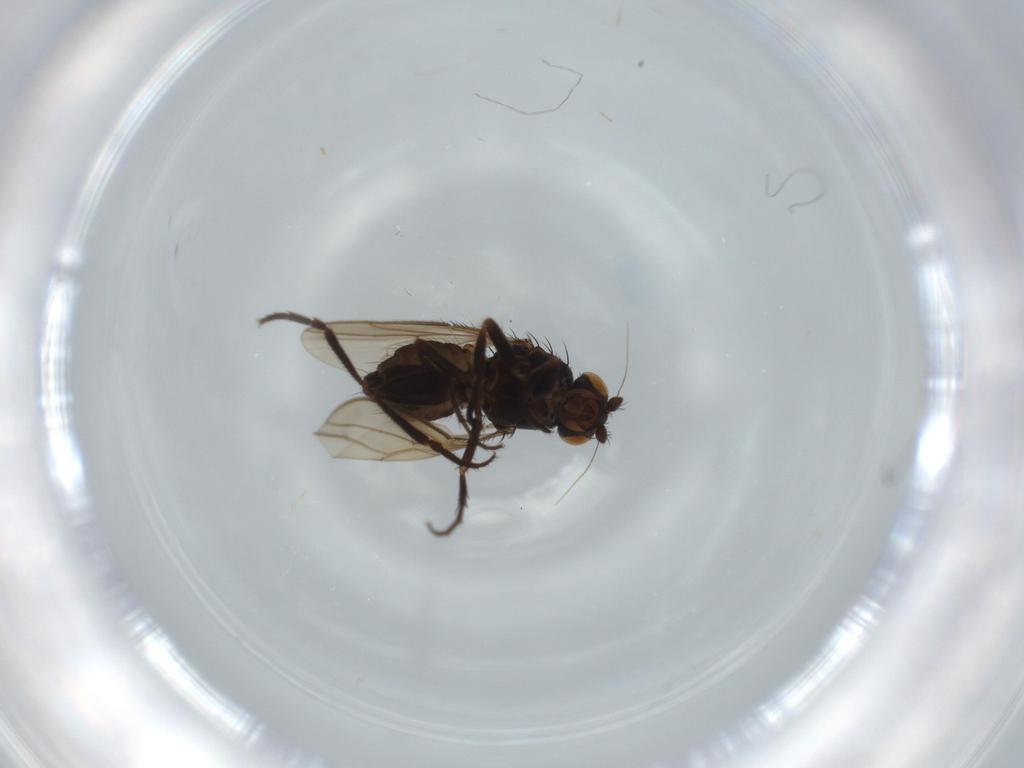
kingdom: Animalia
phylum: Arthropoda
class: Insecta
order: Diptera
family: Sphaeroceridae
